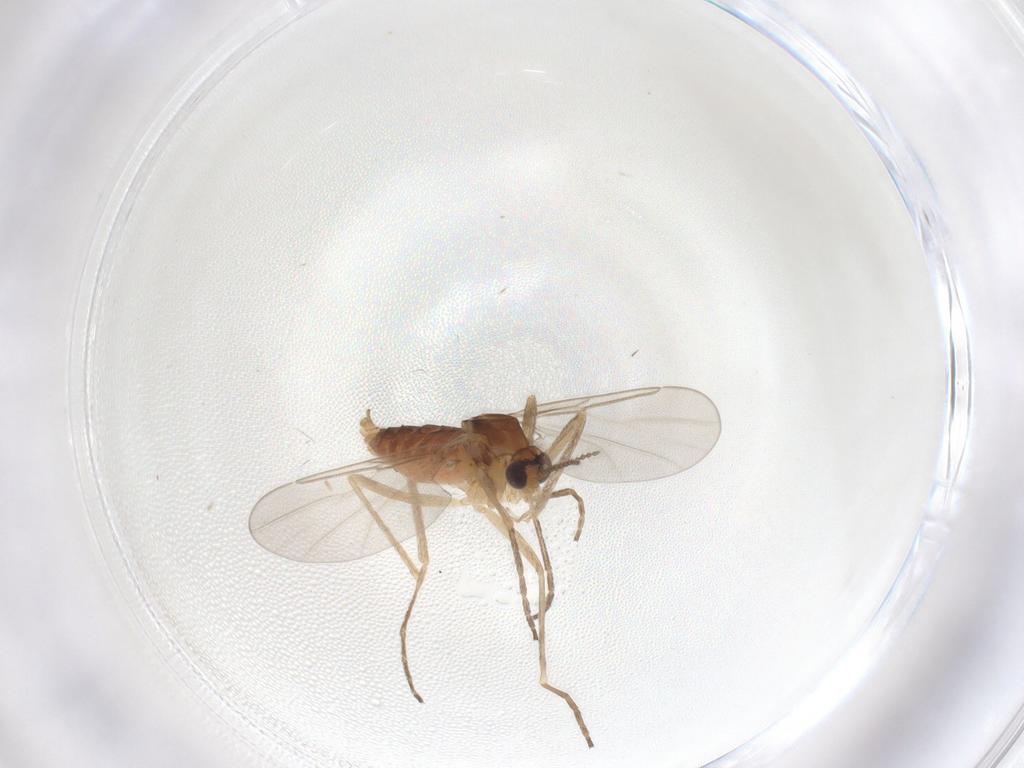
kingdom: Animalia
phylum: Arthropoda
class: Insecta
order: Diptera
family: Cecidomyiidae
